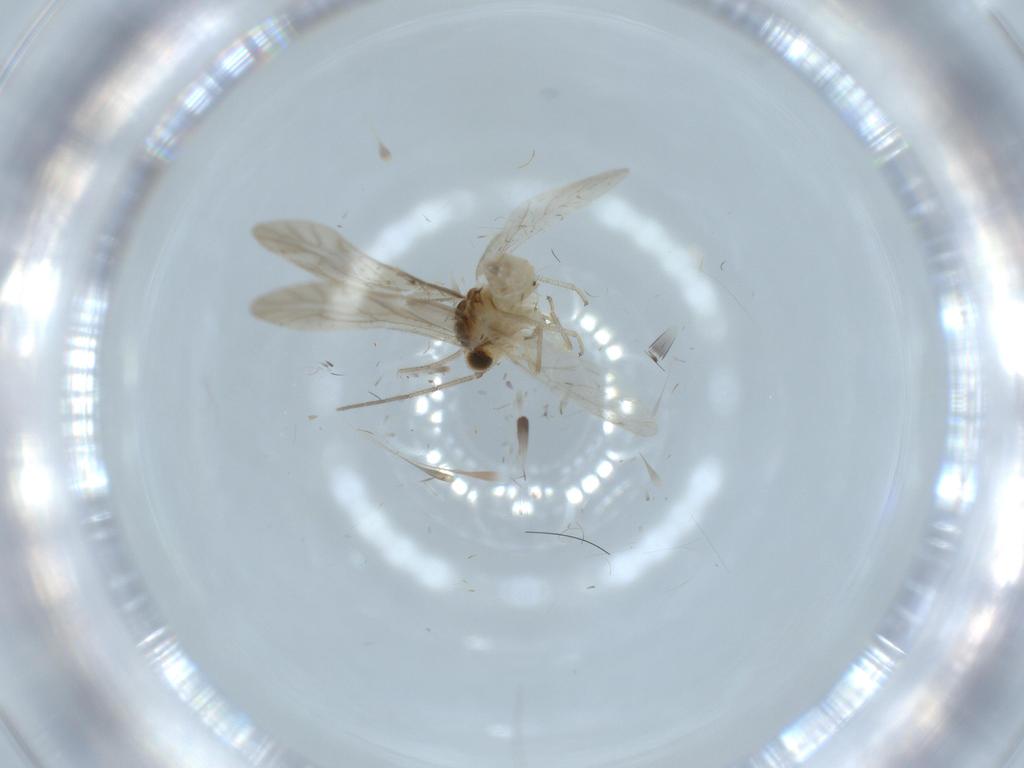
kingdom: Animalia
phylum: Arthropoda
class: Insecta
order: Psocodea
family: Caeciliusidae
